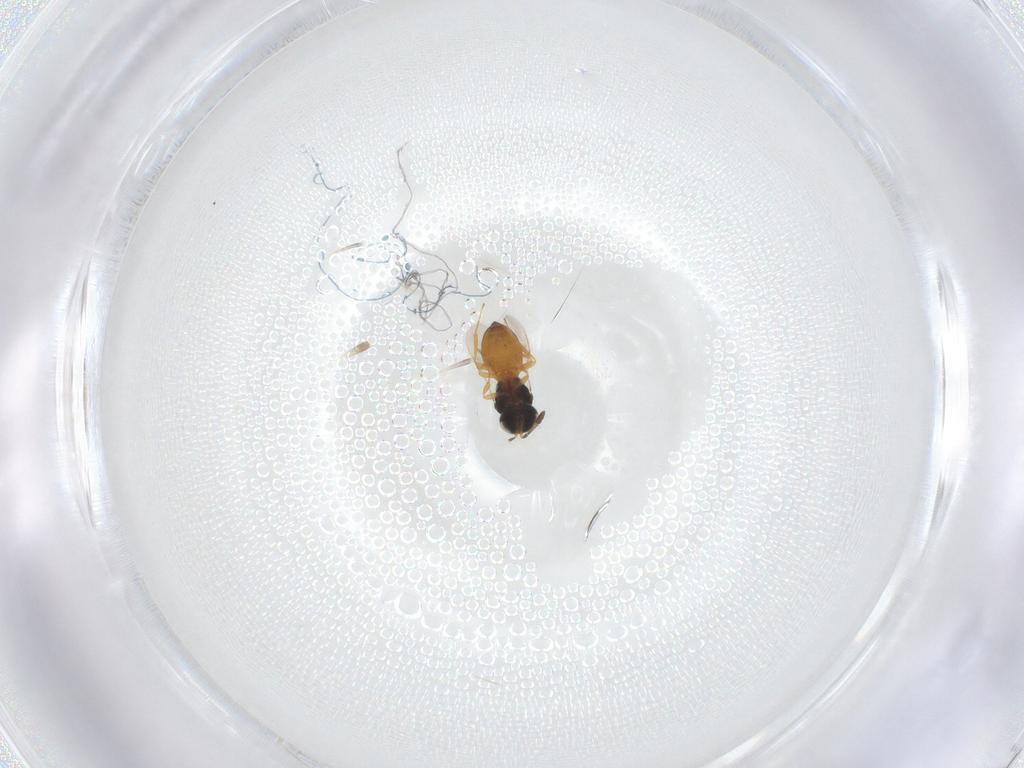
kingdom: Animalia
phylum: Arthropoda
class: Insecta
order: Hymenoptera
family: Scelionidae
